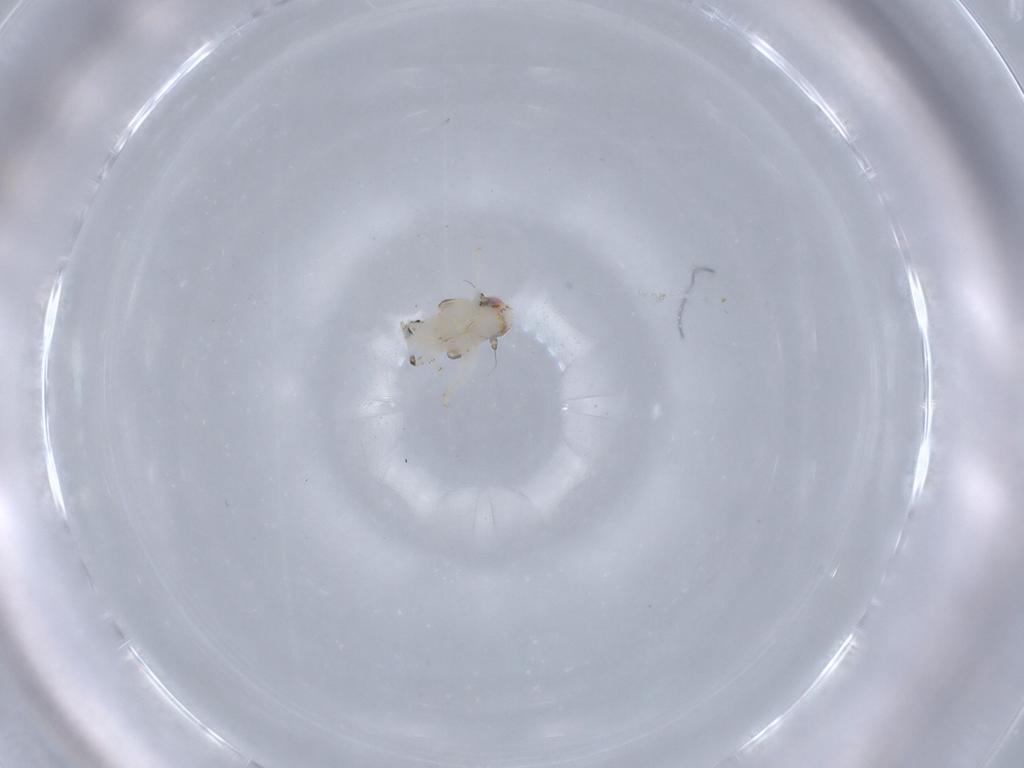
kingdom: Animalia
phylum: Arthropoda
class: Insecta
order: Hemiptera
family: Nogodinidae
